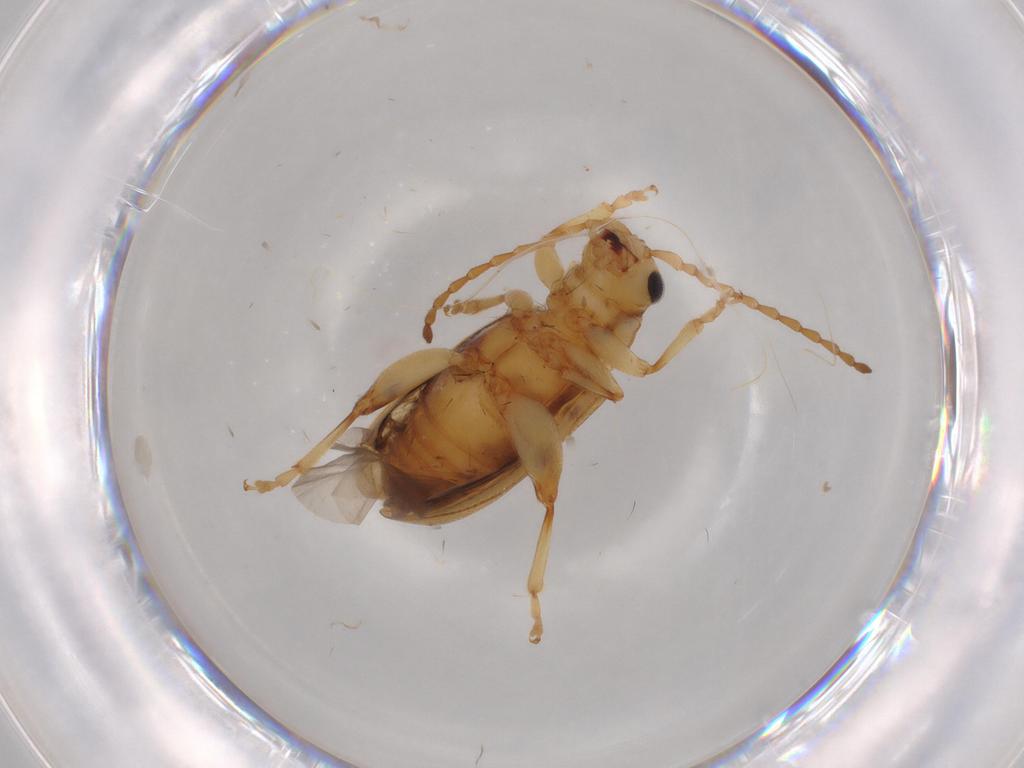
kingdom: Animalia
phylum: Arthropoda
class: Insecta
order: Coleoptera
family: Chrysomelidae
